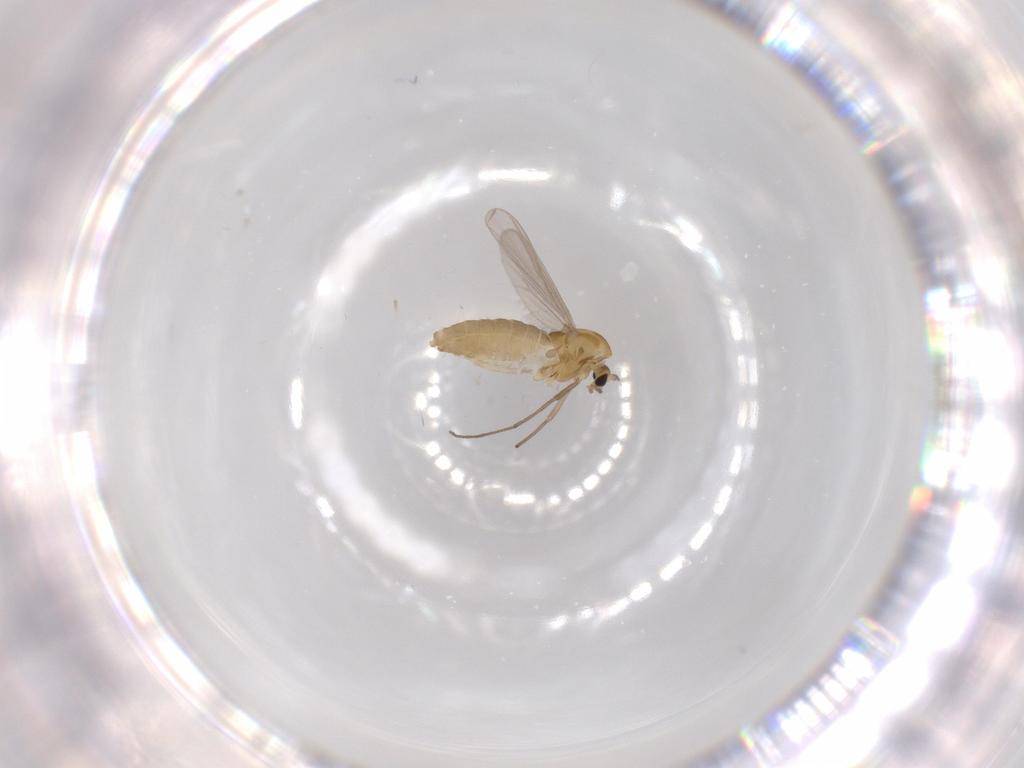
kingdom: Animalia
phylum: Arthropoda
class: Insecta
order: Diptera
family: Chironomidae
